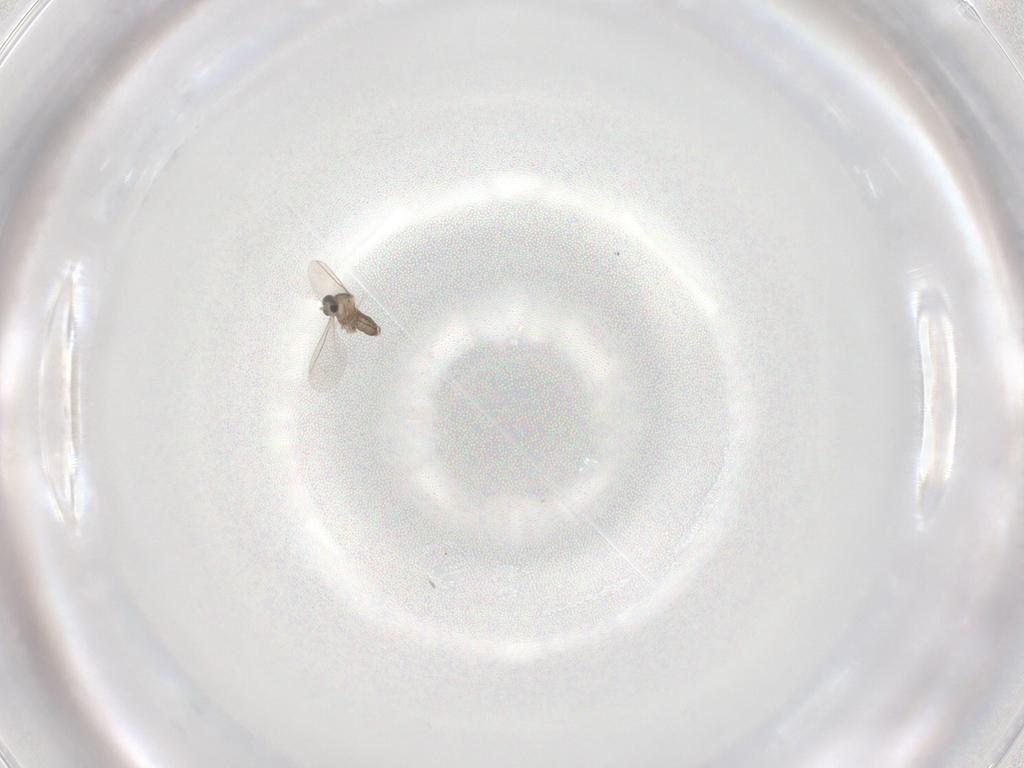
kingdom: Animalia
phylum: Arthropoda
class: Insecta
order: Diptera
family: Cecidomyiidae
